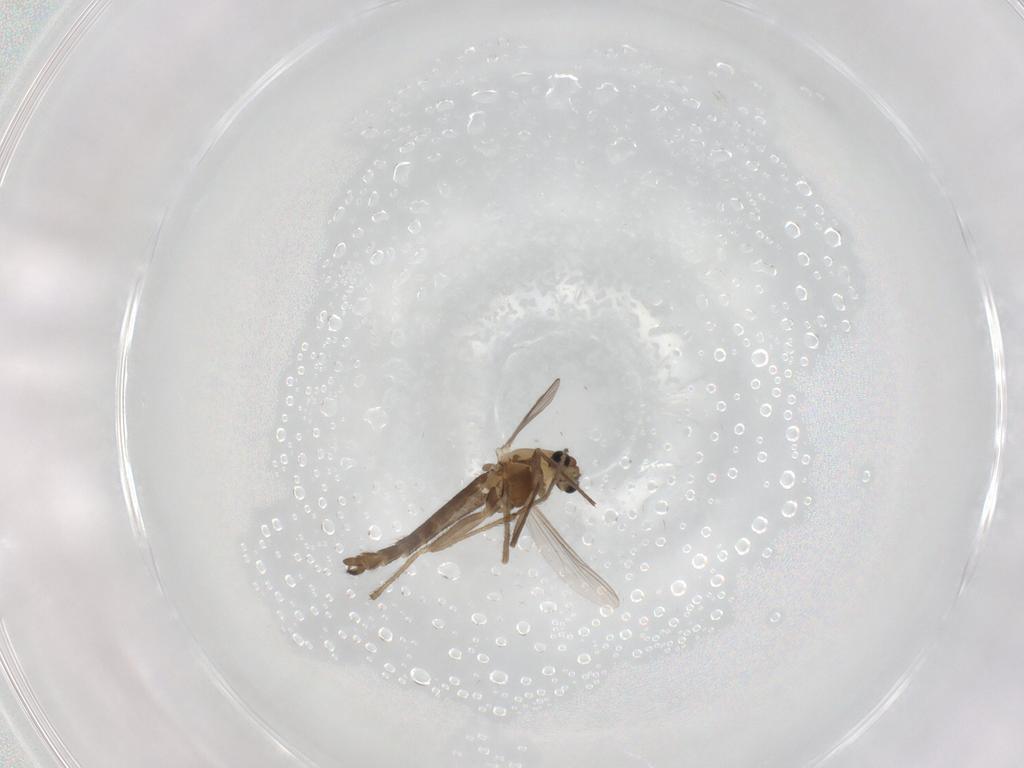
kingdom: Animalia
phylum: Arthropoda
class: Insecta
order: Diptera
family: Chironomidae
